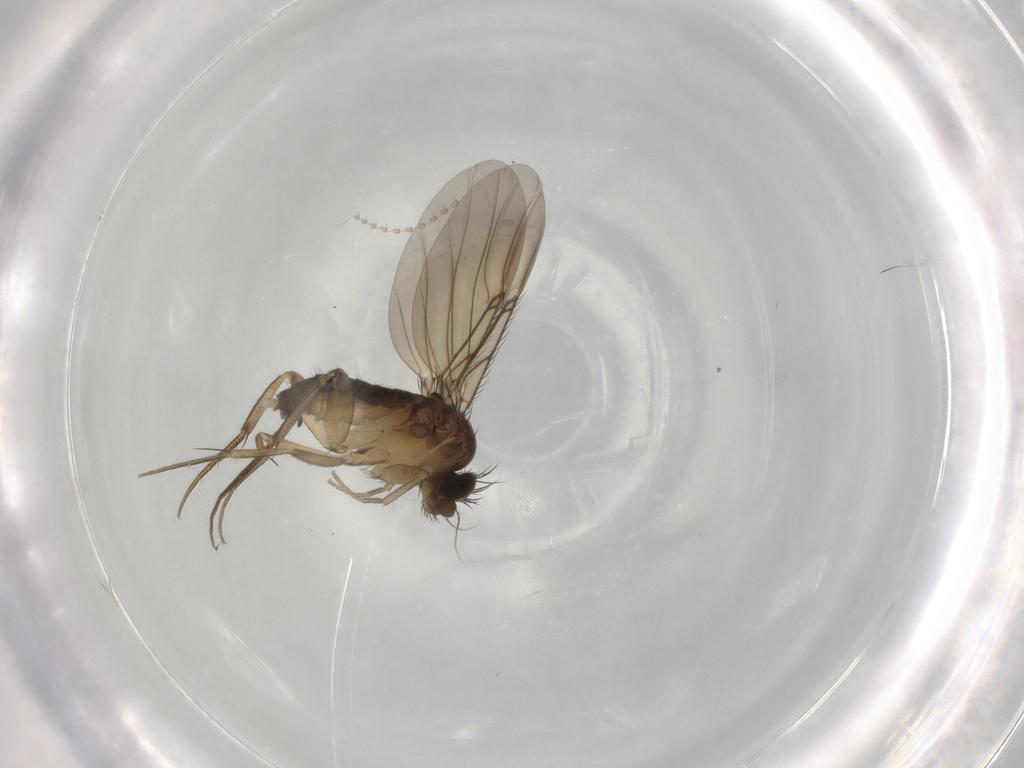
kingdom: Animalia
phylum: Arthropoda
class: Insecta
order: Diptera
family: Phoridae
